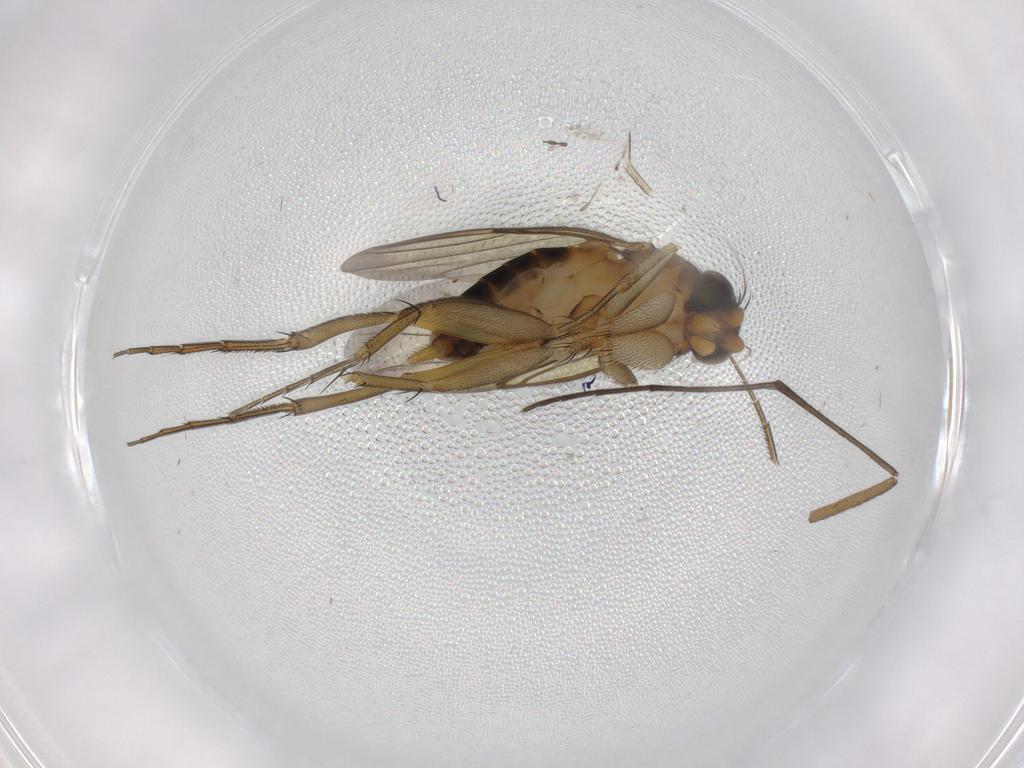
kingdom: Animalia
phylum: Arthropoda
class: Insecta
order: Diptera
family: Phoridae
